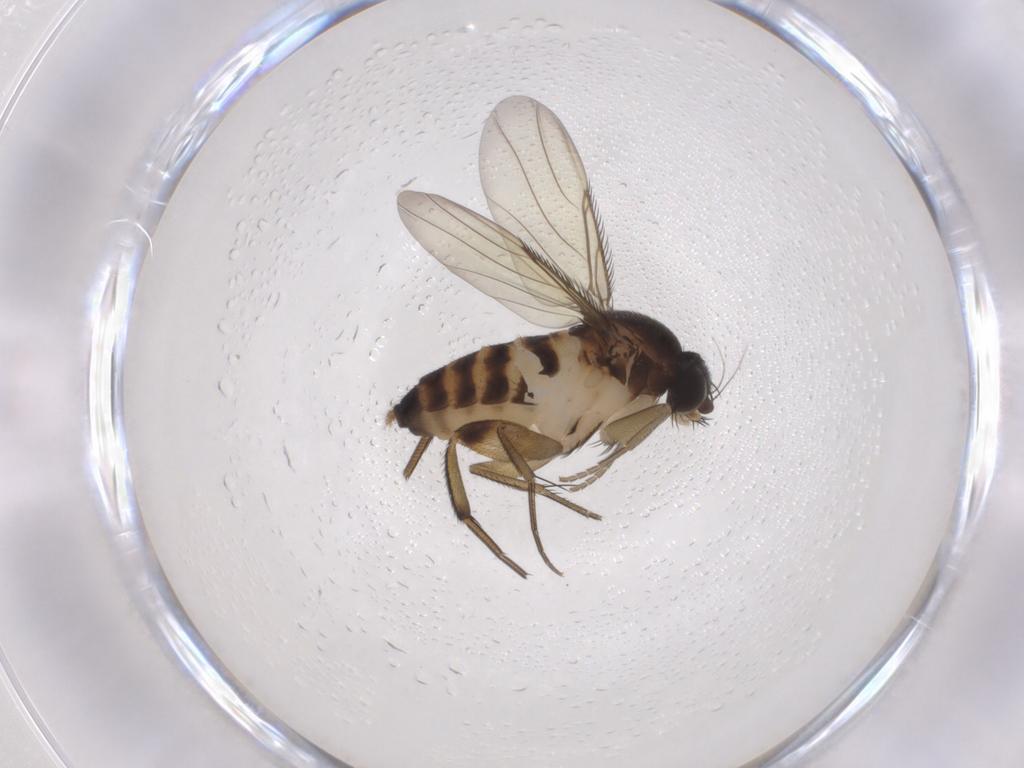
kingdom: Animalia
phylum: Arthropoda
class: Insecta
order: Diptera
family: Phoridae
